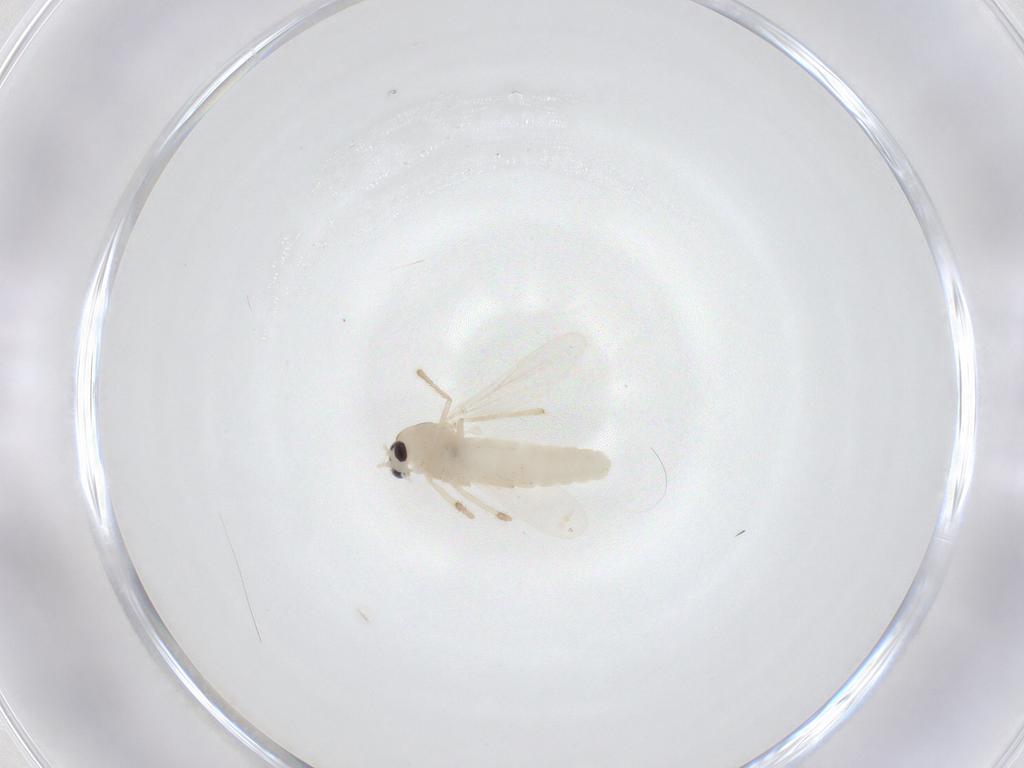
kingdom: Animalia
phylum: Arthropoda
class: Insecta
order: Diptera
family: Chironomidae
